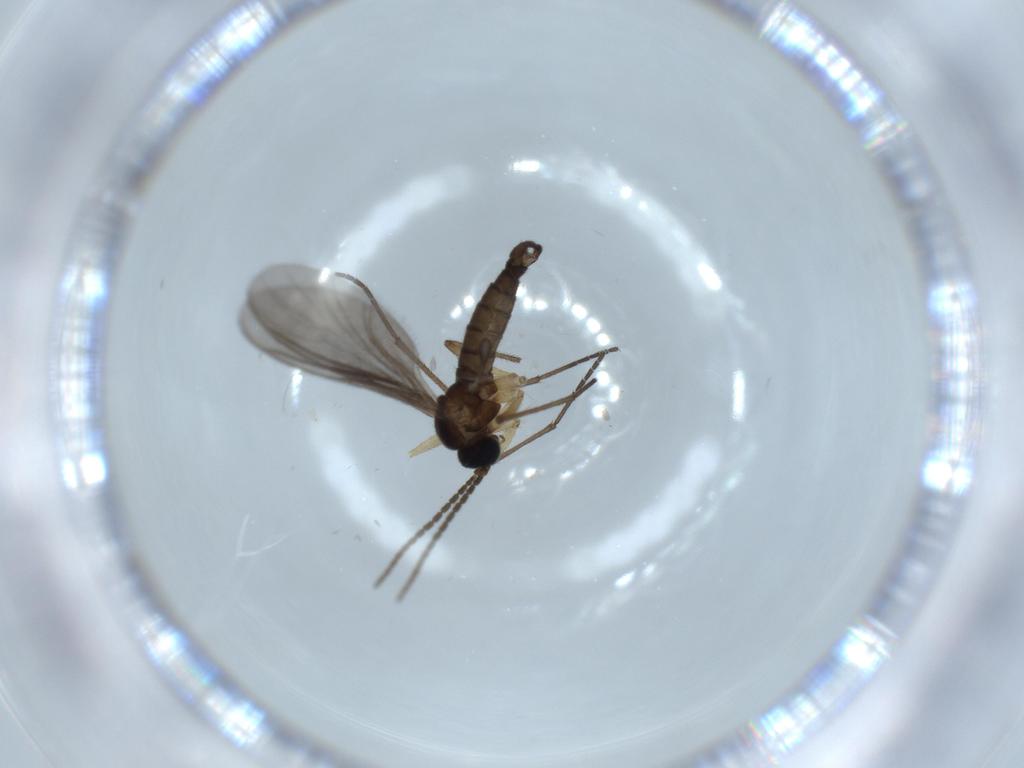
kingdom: Animalia
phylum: Arthropoda
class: Insecta
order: Diptera
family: Sciaridae
